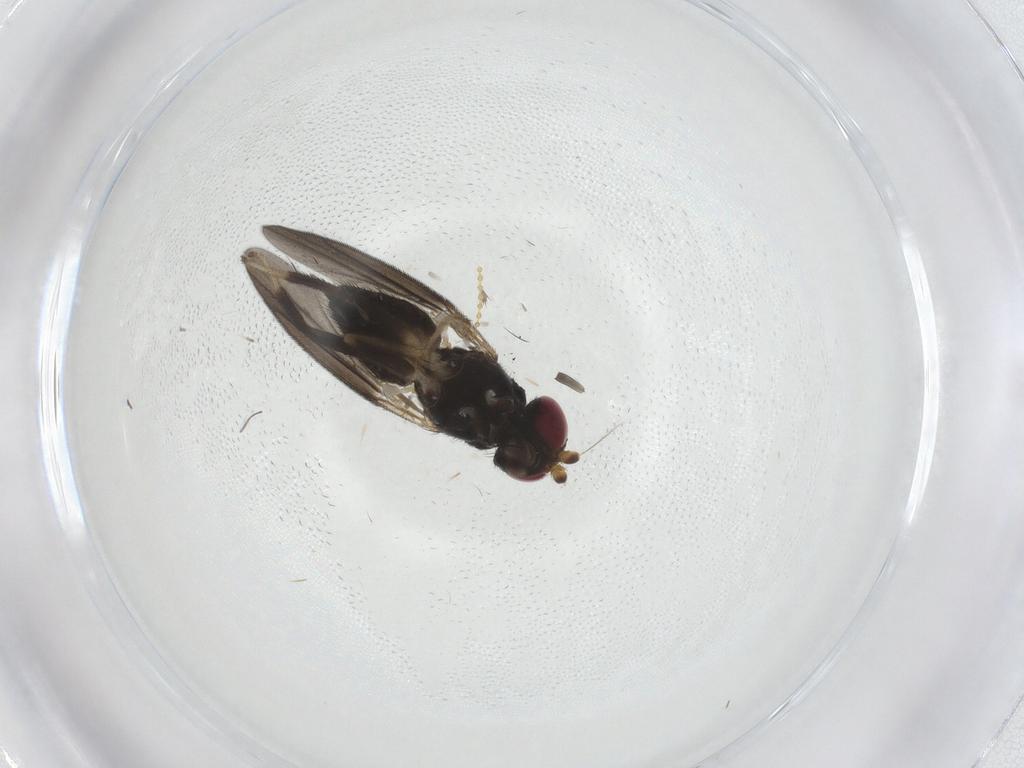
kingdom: Animalia
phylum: Arthropoda
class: Insecta
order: Diptera
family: Clusiidae
